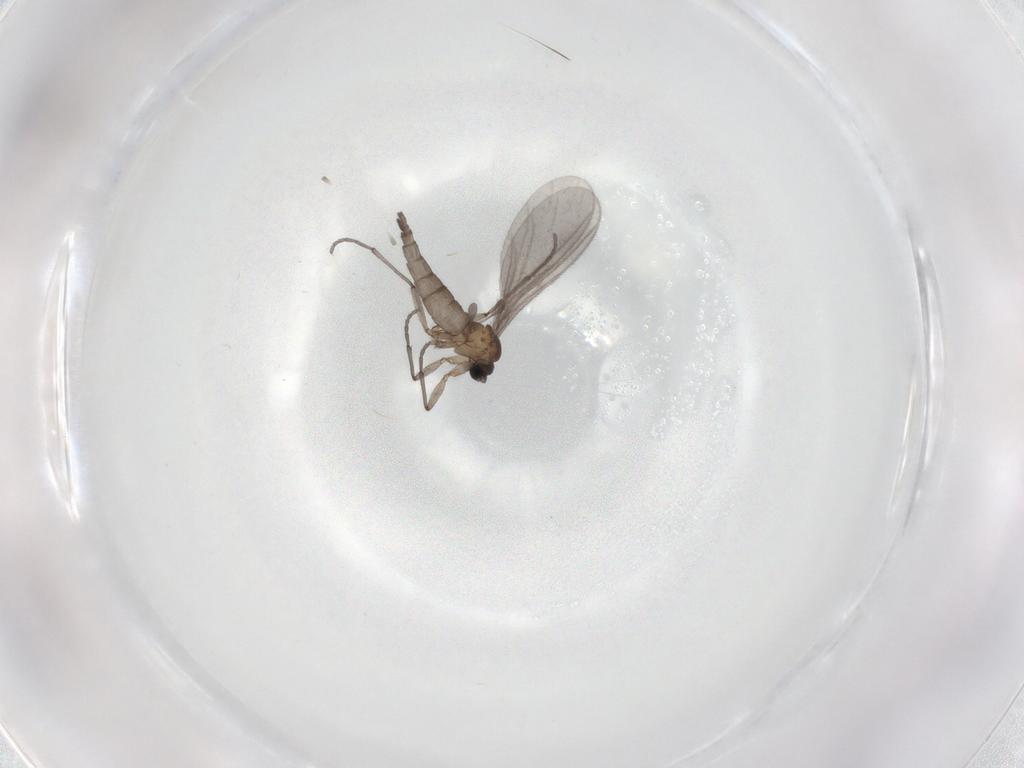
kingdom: Animalia
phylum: Arthropoda
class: Insecta
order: Diptera
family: Sciaridae
